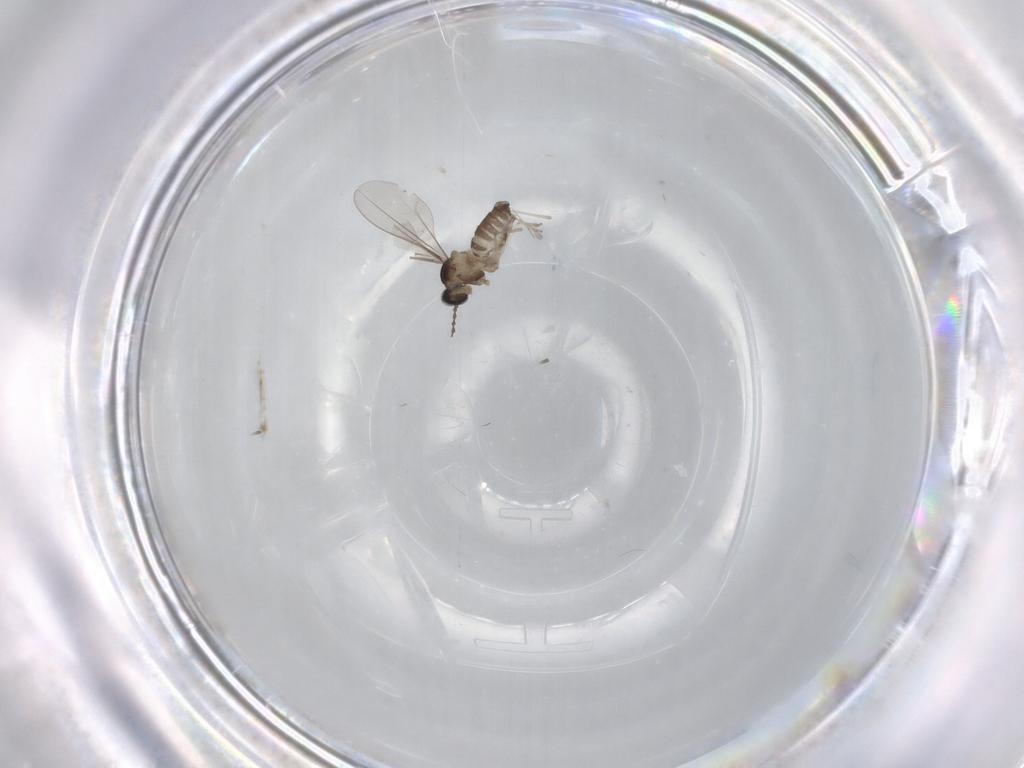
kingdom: Animalia
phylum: Arthropoda
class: Insecta
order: Diptera
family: Cecidomyiidae
